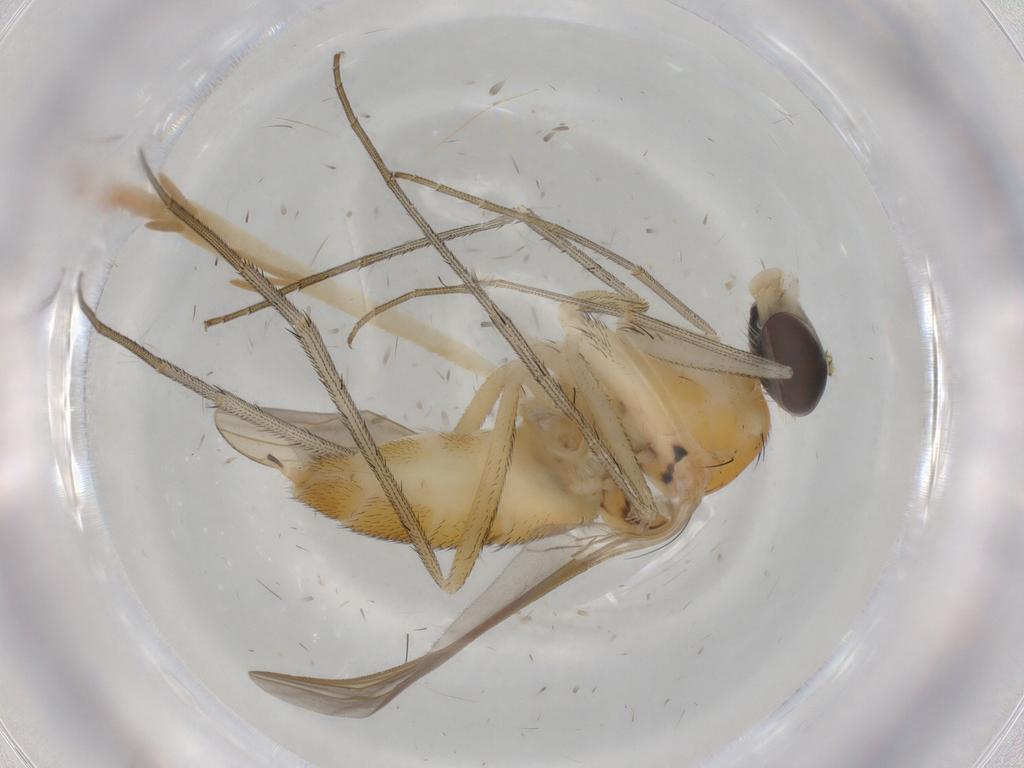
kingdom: Animalia
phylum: Arthropoda
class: Insecta
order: Diptera
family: Dolichopodidae
